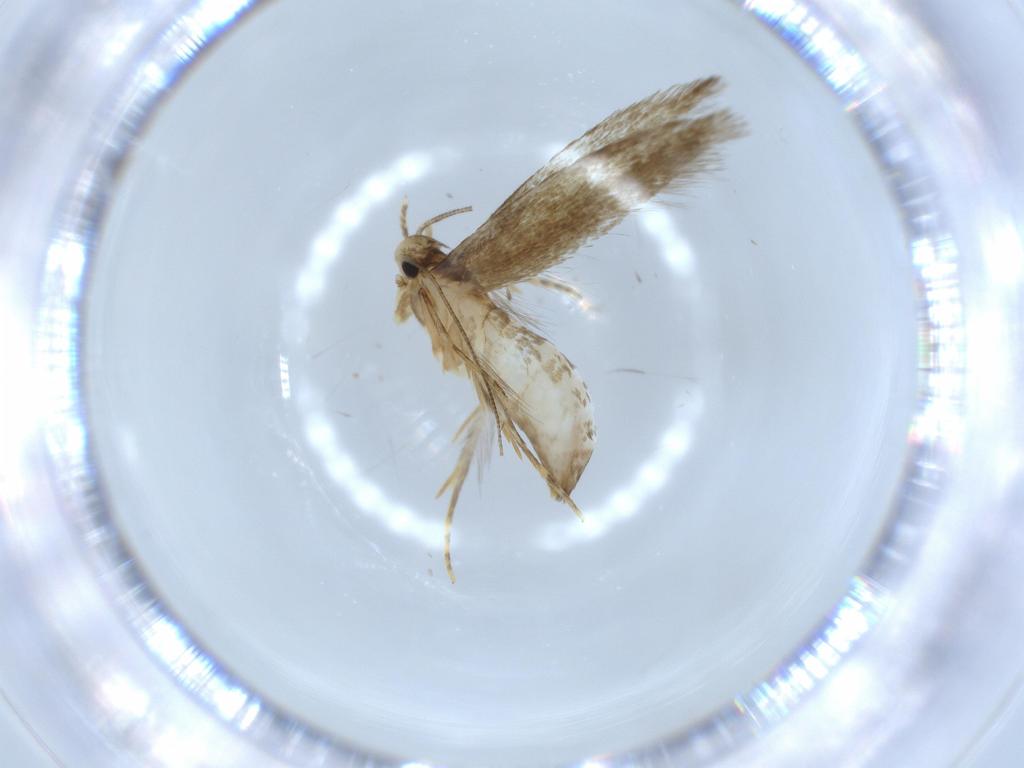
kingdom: Animalia
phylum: Arthropoda
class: Insecta
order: Lepidoptera
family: Tineidae
